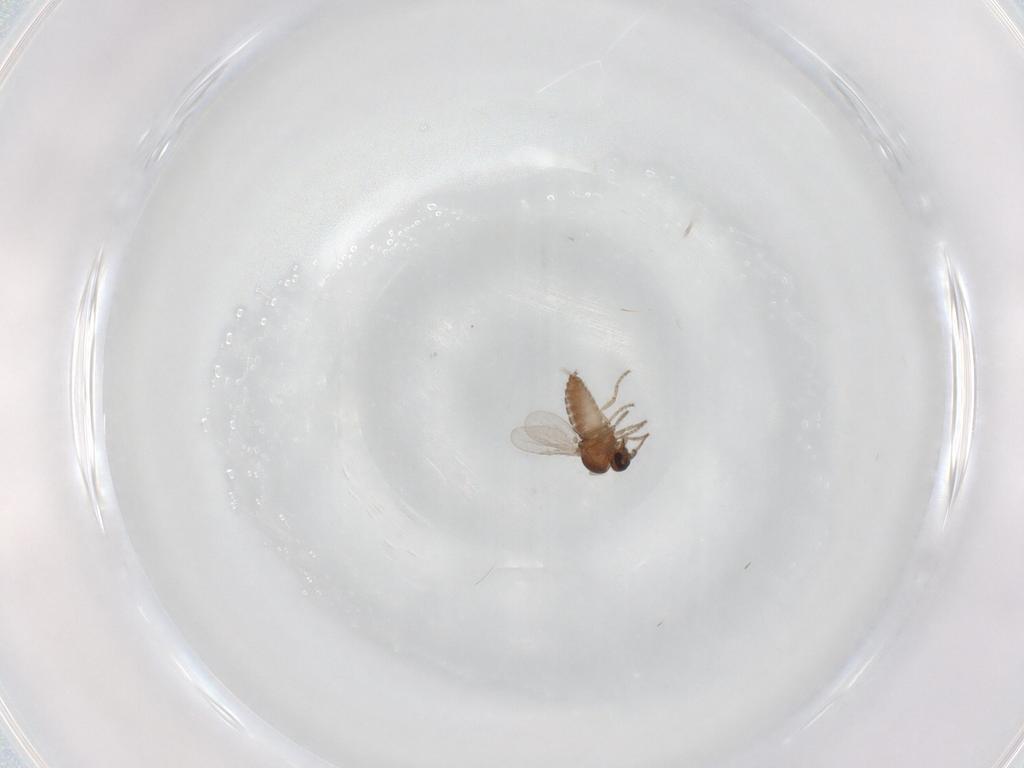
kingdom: Animalia
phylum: Arthropoda
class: Insecta
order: Diptera
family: Ceratopogonidae
